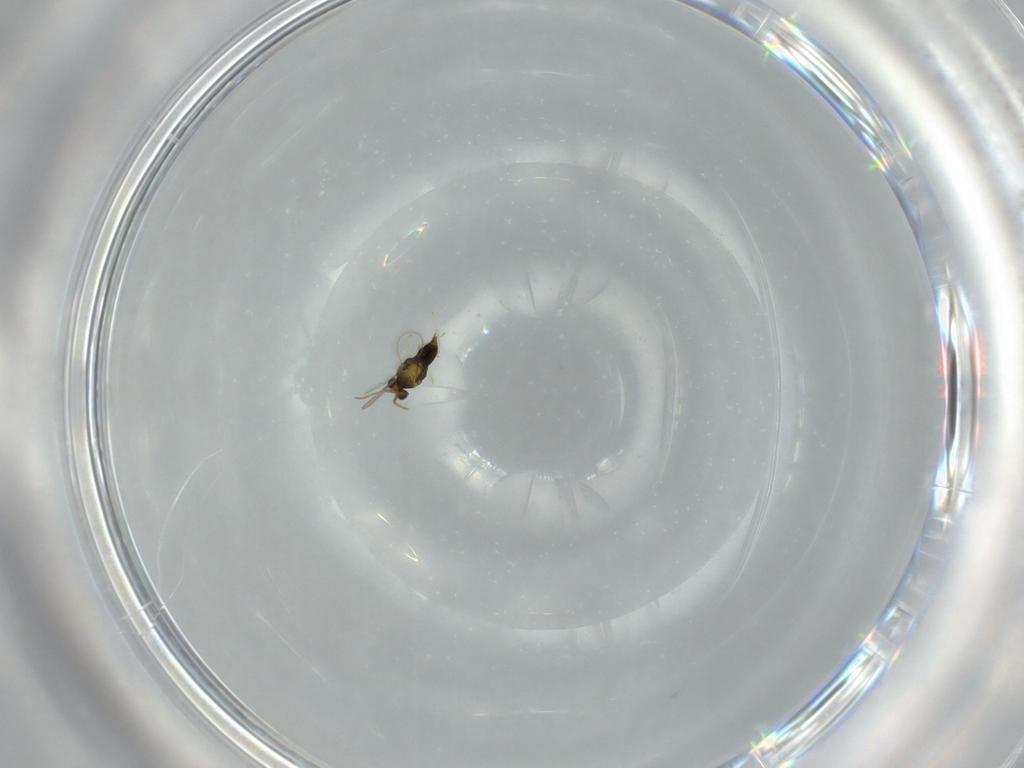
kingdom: Animalia
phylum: Arthropoda
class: Insecta
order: Hymenoptera
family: Aphelinidae
